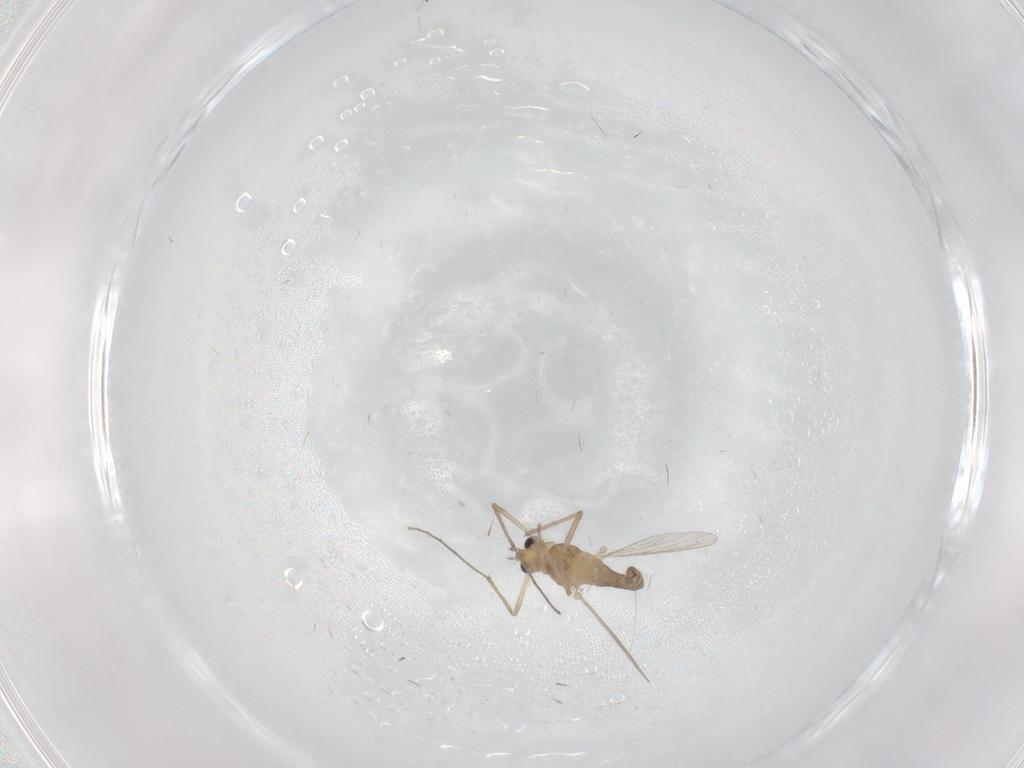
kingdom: Animalia
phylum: Arthropoda
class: Insecta
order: Diptera
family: Chironomidae
